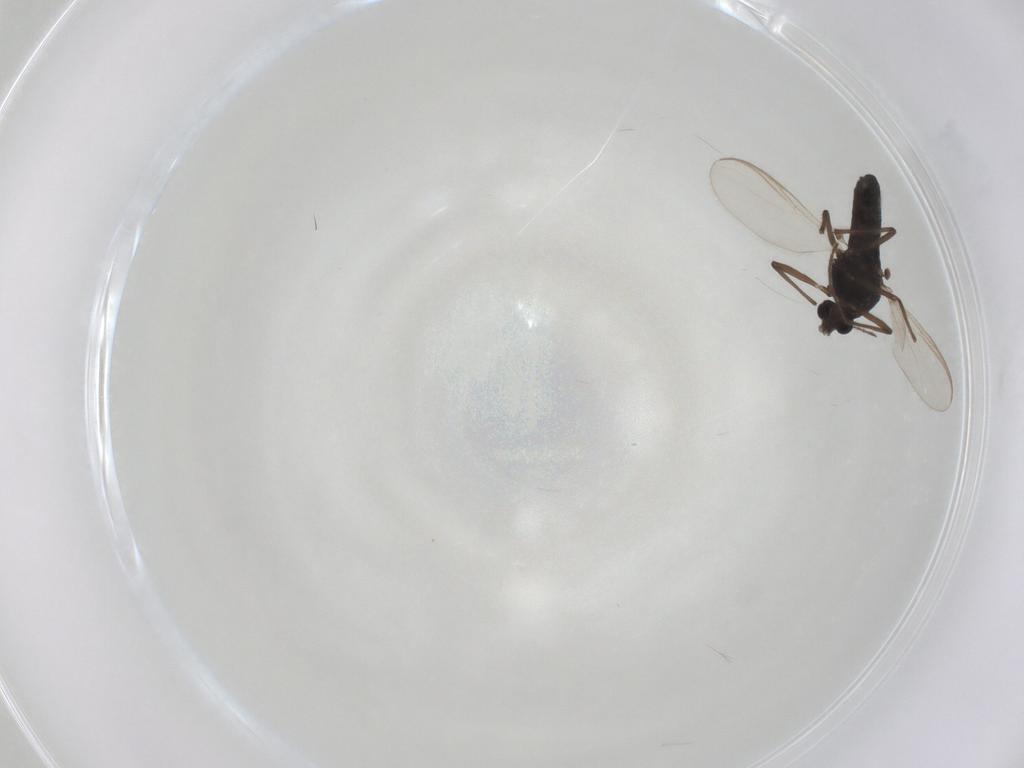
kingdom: Animalia
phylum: Arthropoda
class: Insecta
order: Diptera
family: Chironomidae
